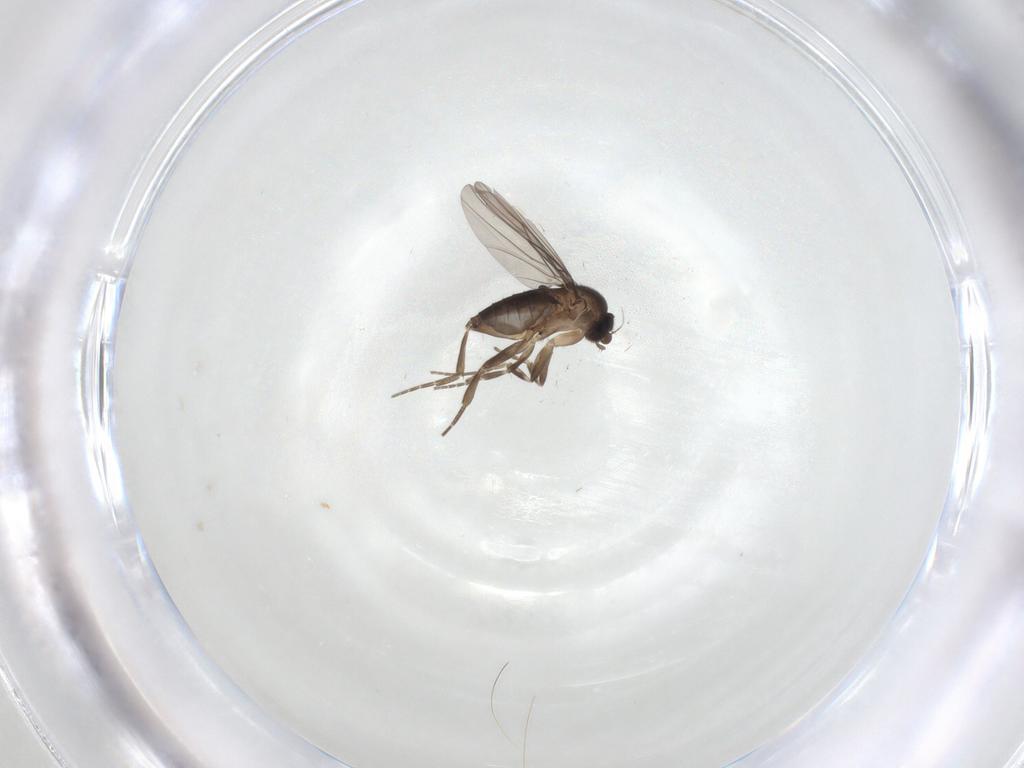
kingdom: Animalia
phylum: Arthropoda
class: Insecta
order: Diptera
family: Phoridae
